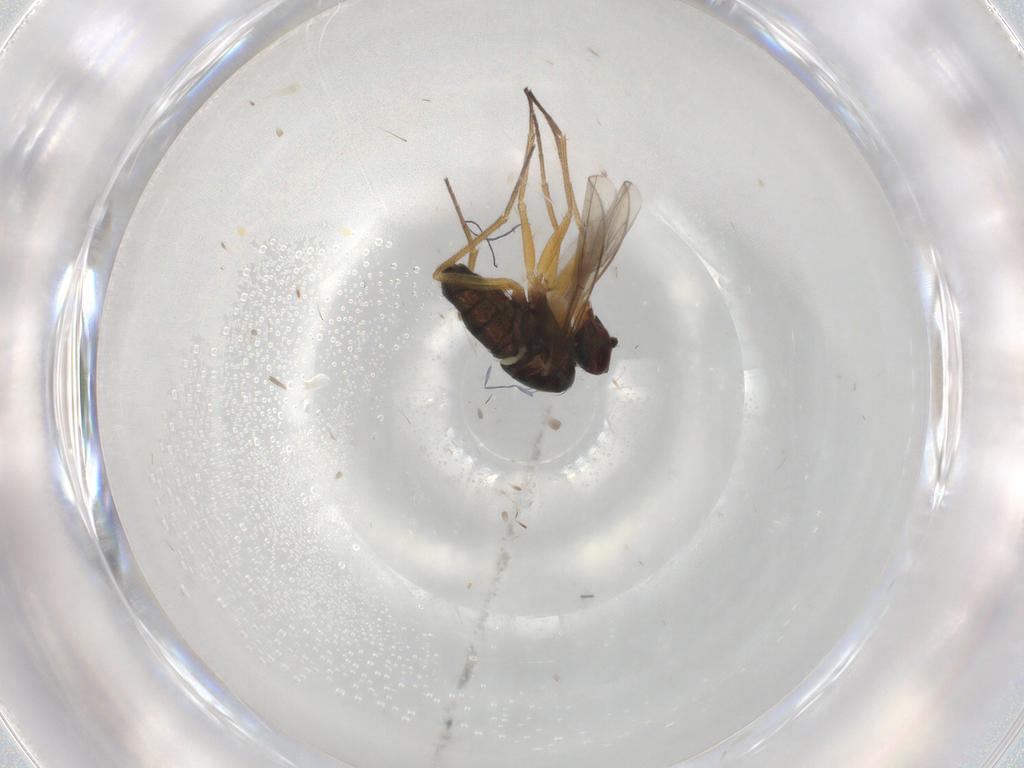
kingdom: Animalia
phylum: Arthropoda
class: Insecta
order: Diptera
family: Dolichopodidae
